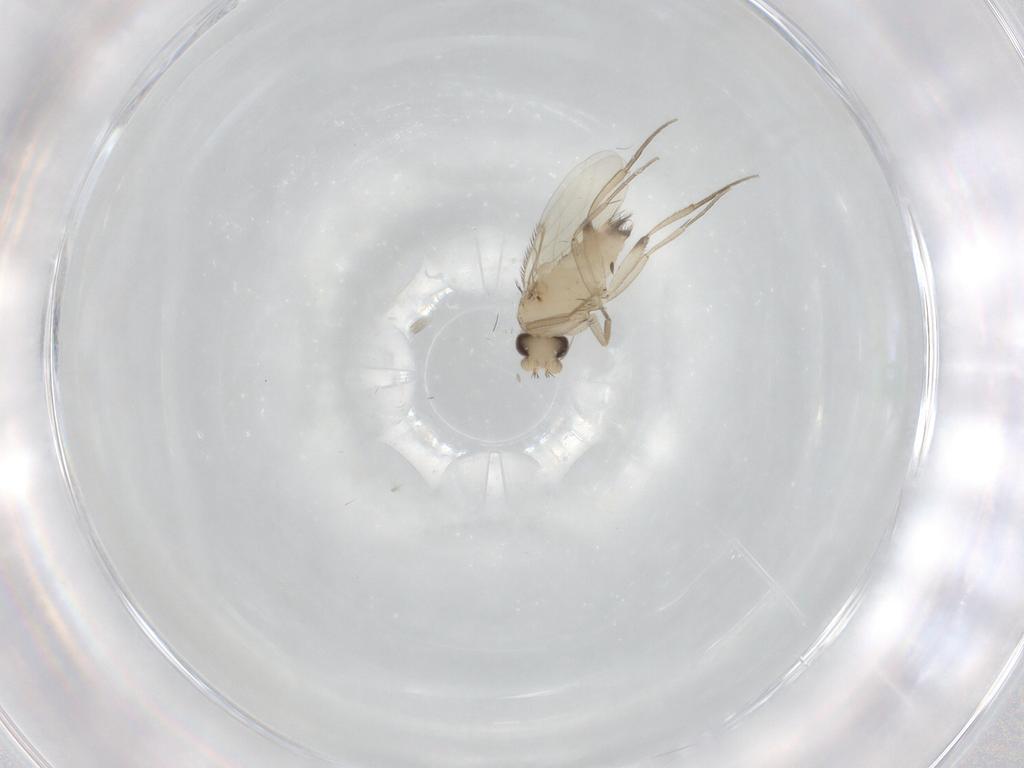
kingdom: Animalia
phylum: Arthropoda
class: Insecta
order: Diptera
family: Phoridae
